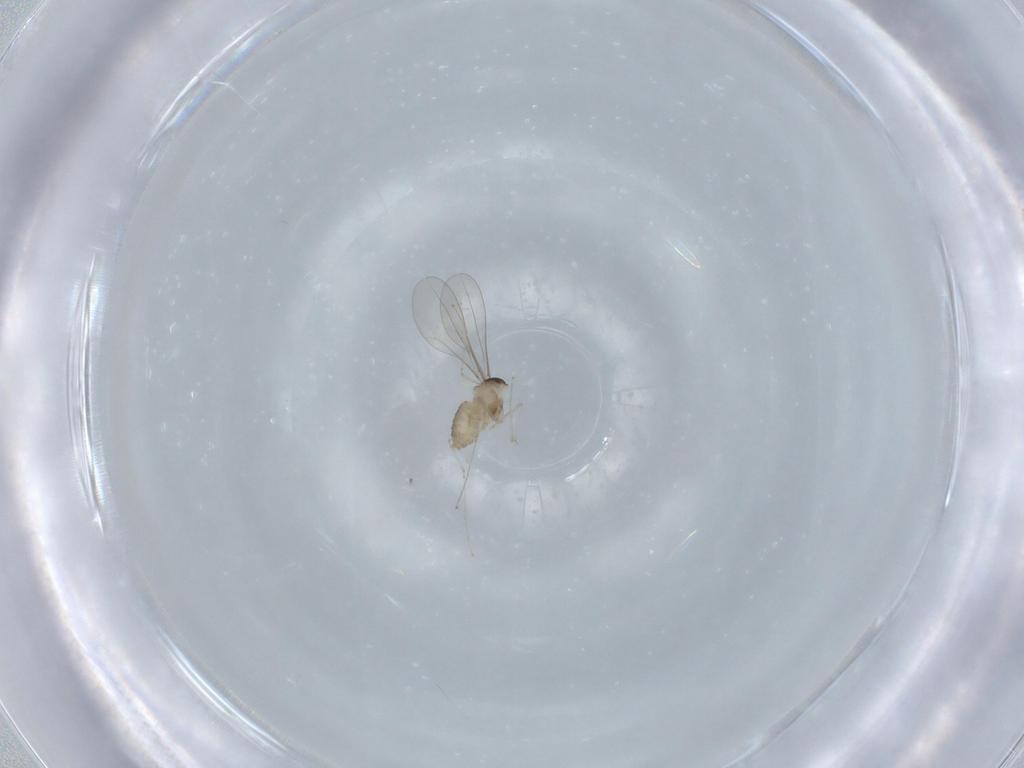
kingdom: Animalia
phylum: Arthropoda
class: Insecta
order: Diptera
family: Cecidomyiidae
